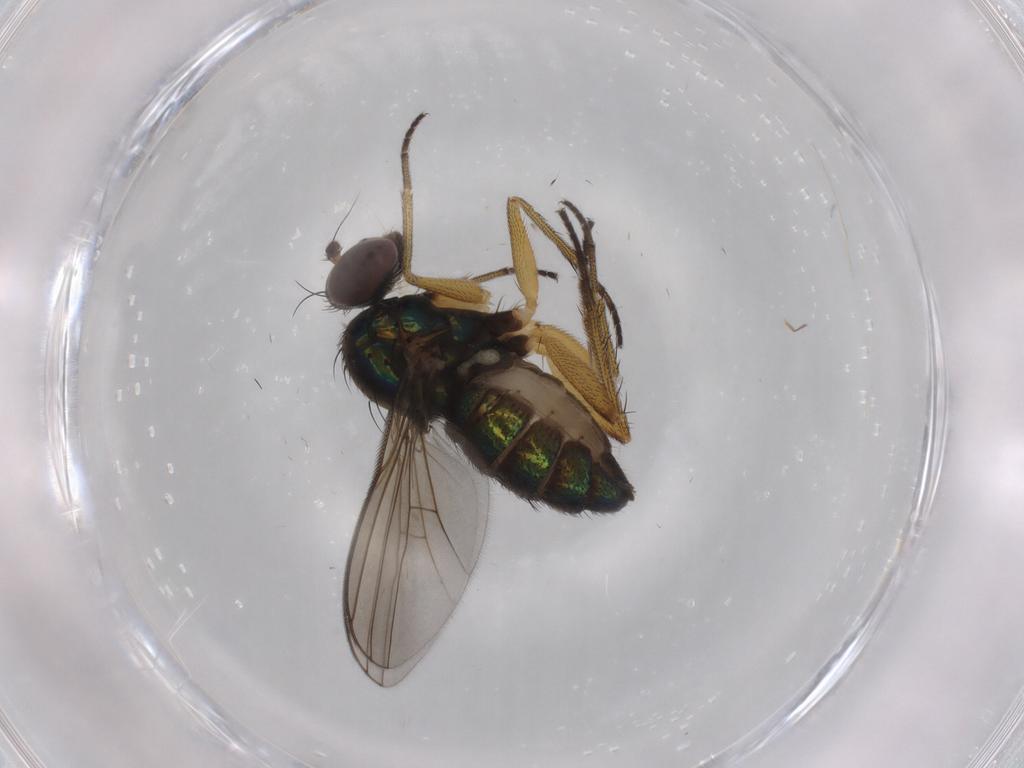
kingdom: Animalia
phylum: Arthropoda
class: Insecta
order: Diptera
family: Dolichopodidae
